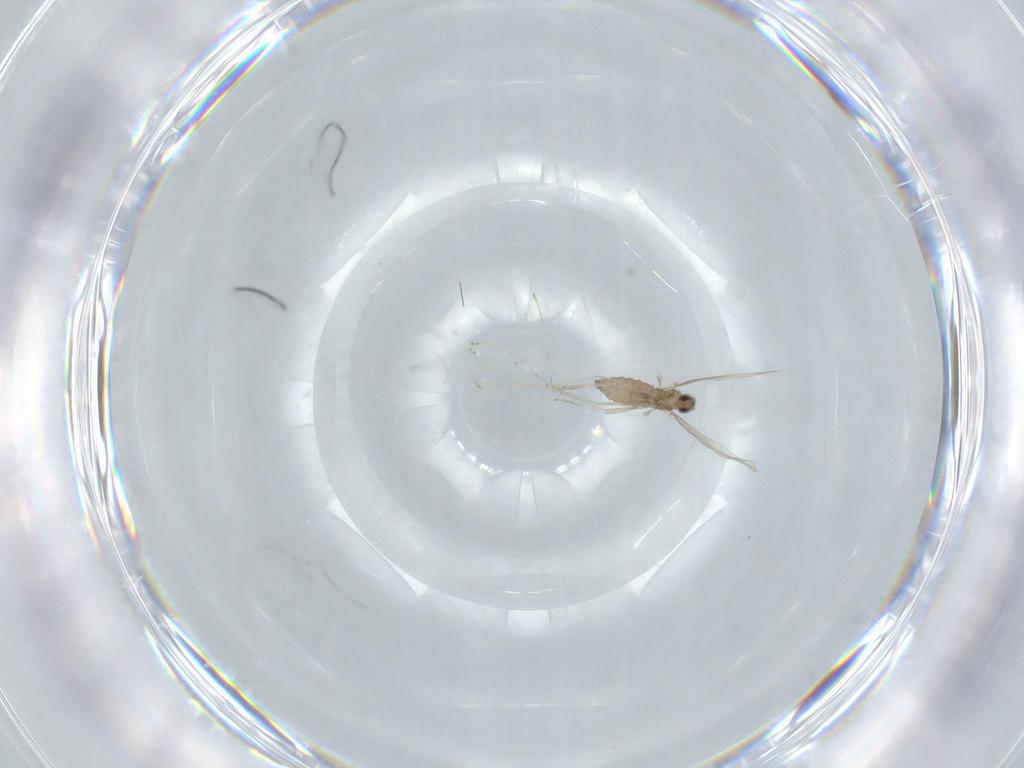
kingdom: Animalia
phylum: Arthropoda
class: Insecta
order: Diptera
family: Cecidomyiidae
